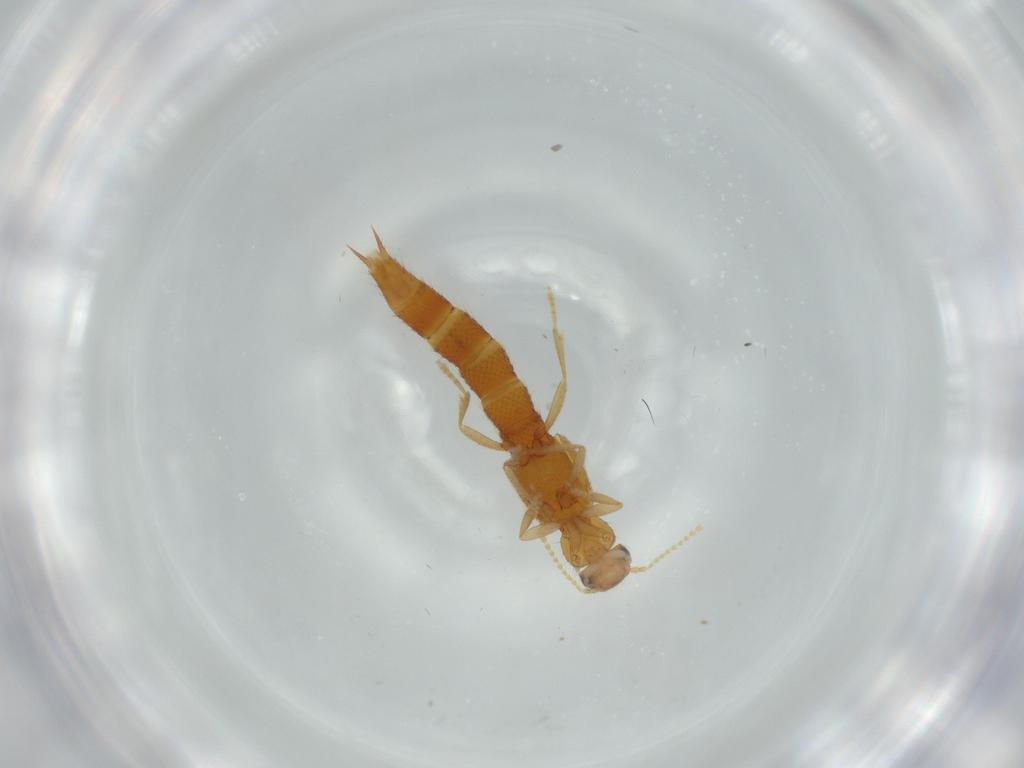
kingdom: Animalia
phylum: Arthropoda
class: Insecta
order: Coleoptera
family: Staphylinidae
